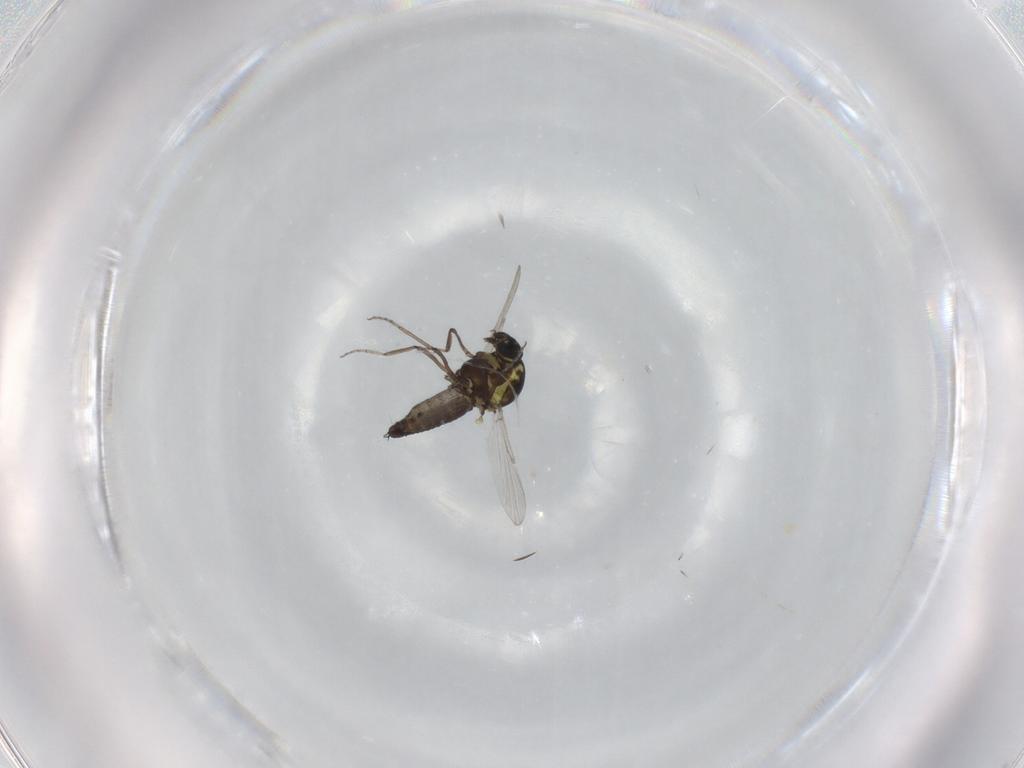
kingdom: Animalia
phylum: Arthropoda
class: Insecta
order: Diptera
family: Ceratopogonidae
